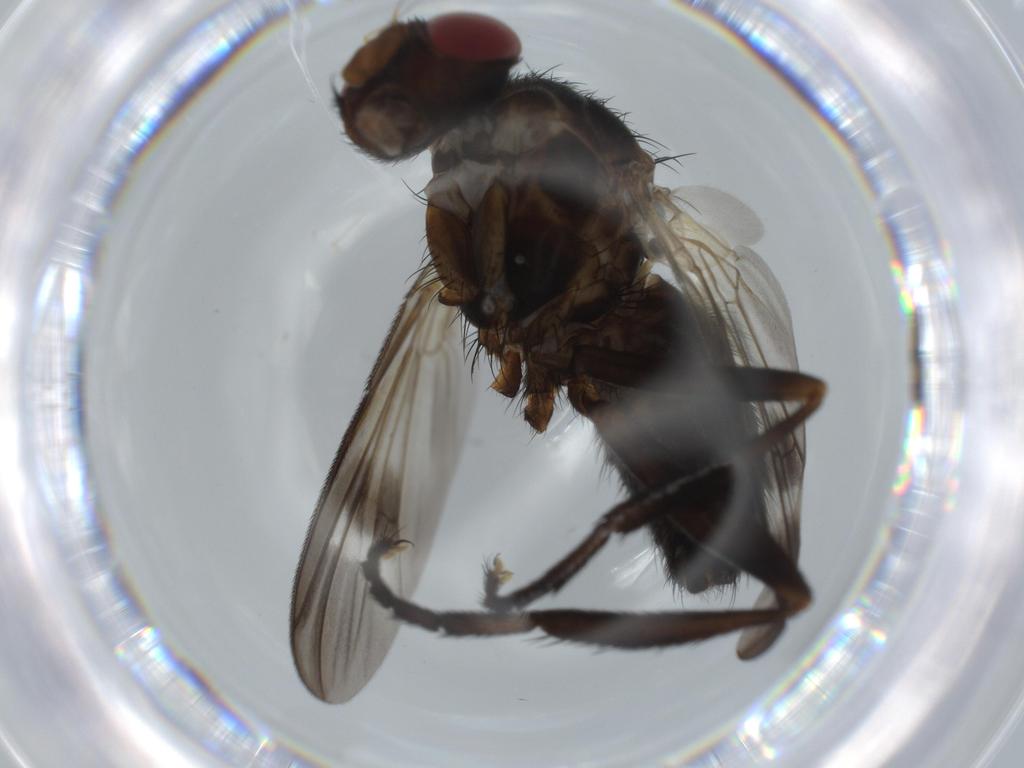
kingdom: Animalia
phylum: Arthropoda
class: Insecta
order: Diptera
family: Calliphoridae
